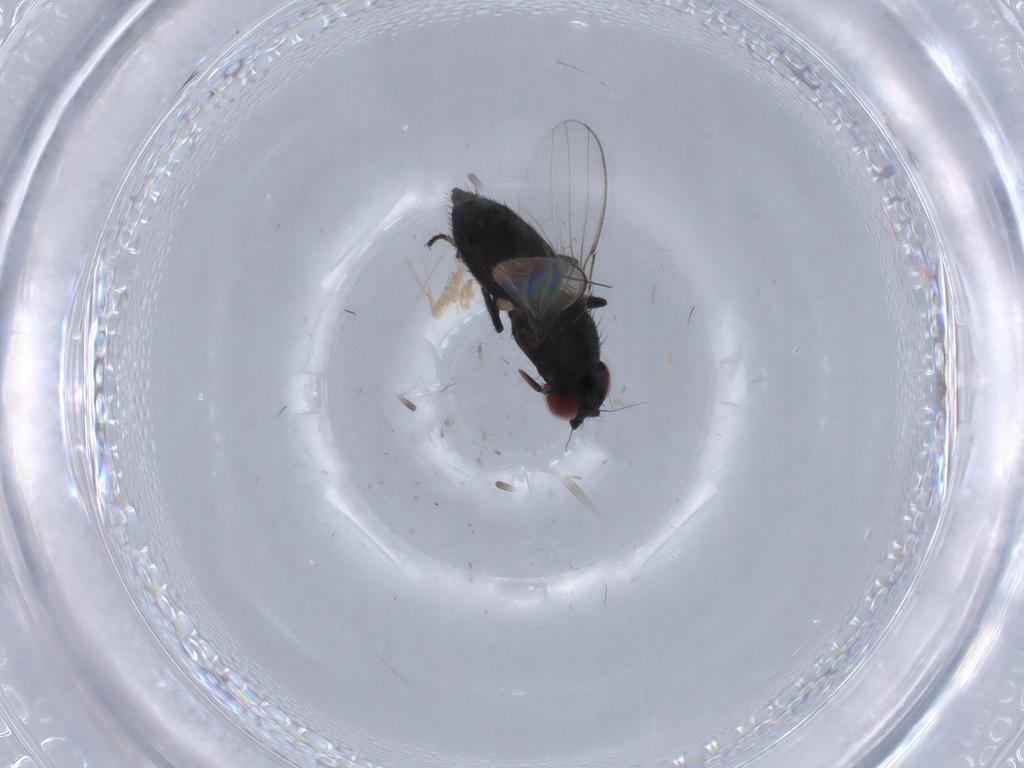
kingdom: Animalia
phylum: Arthropoda
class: Insecta
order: Diptera
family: Milichiidae
